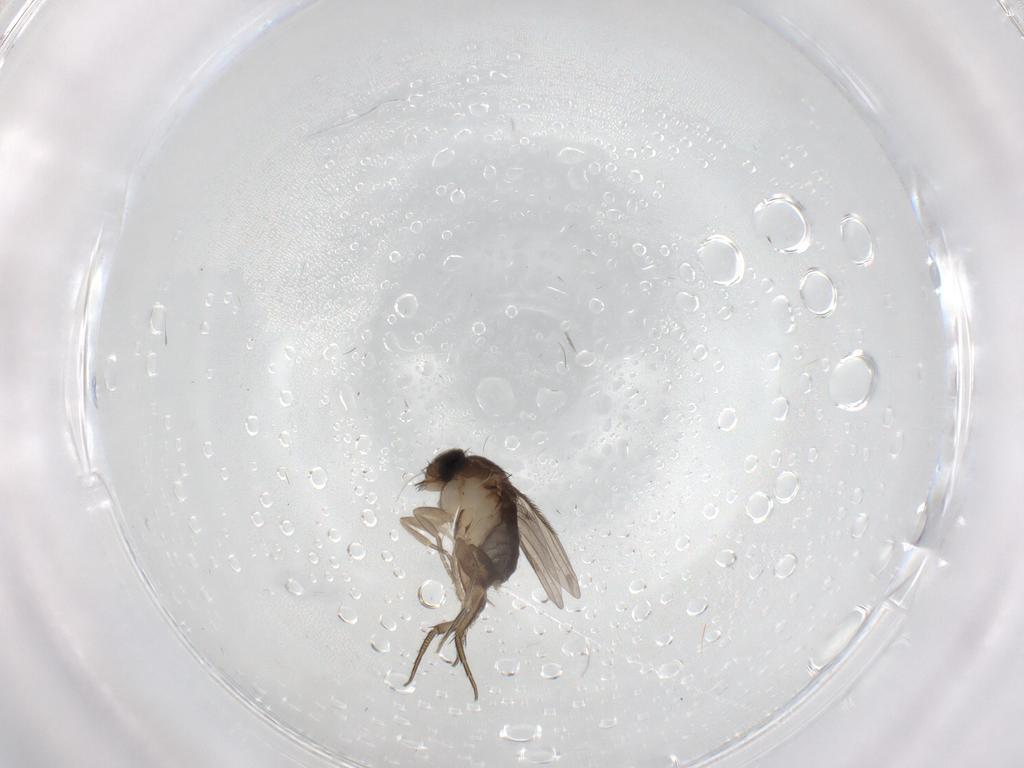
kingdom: Animalia
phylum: Arthropoda
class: Insecta
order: Diptera
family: Phoridae
